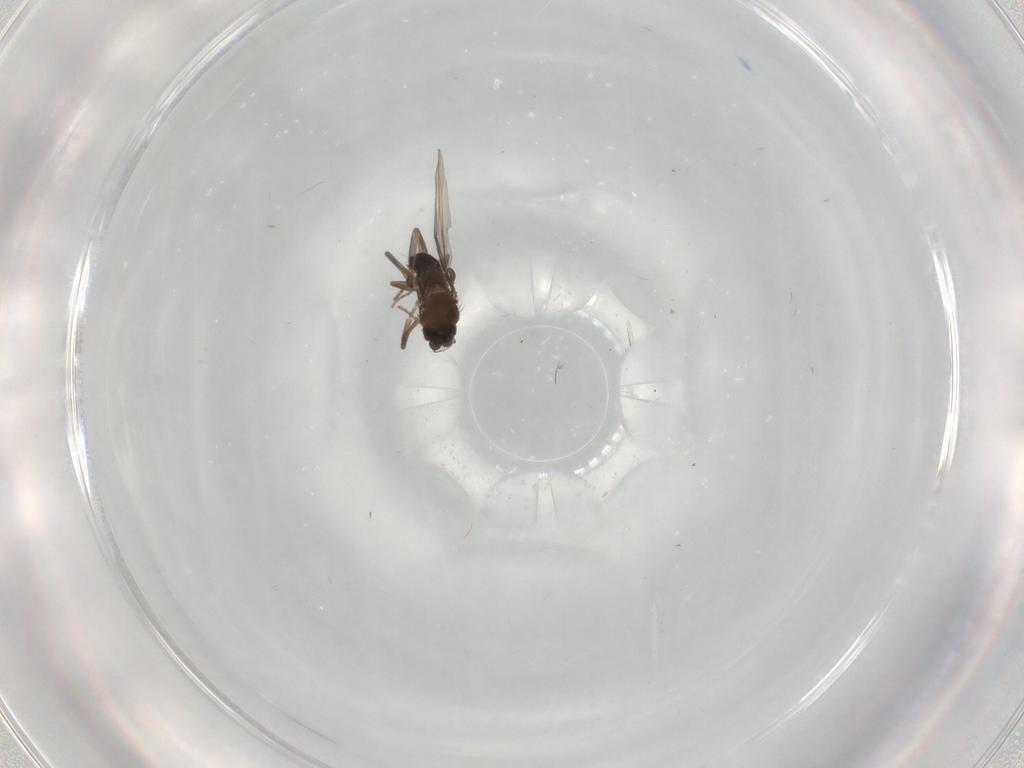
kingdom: Animalia
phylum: Arthropoda
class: Insecta
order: Diptera
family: Phoridae
